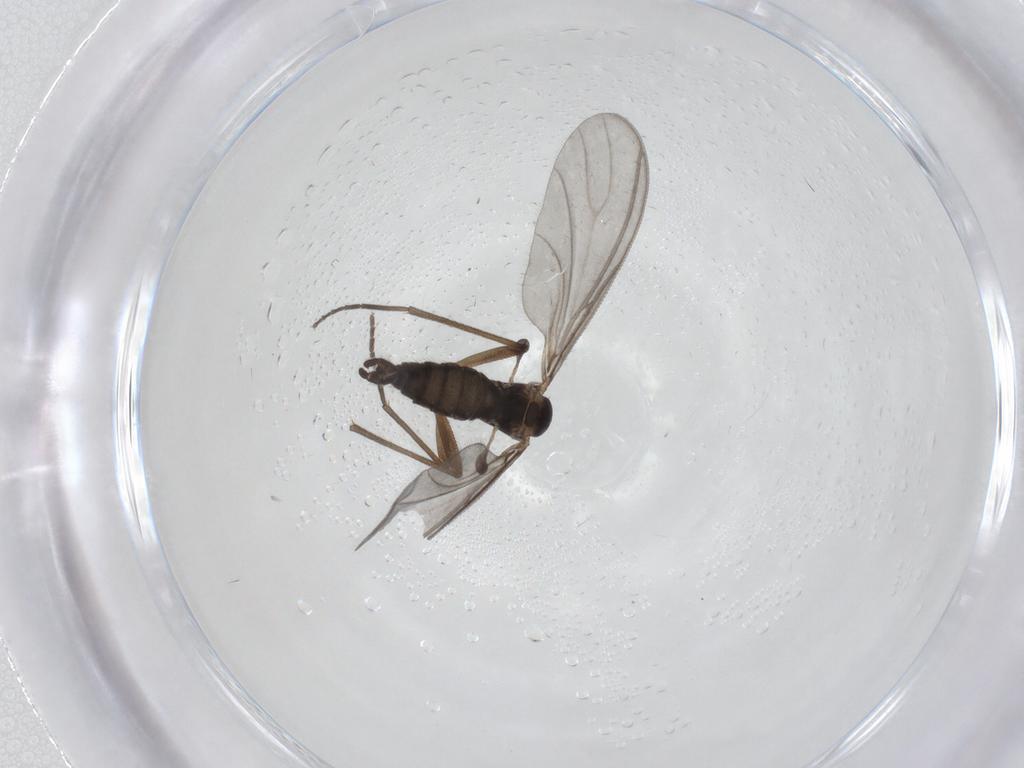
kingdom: Animalia
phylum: Arthropoda
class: Insecta
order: Diptera
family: Sciaridae
